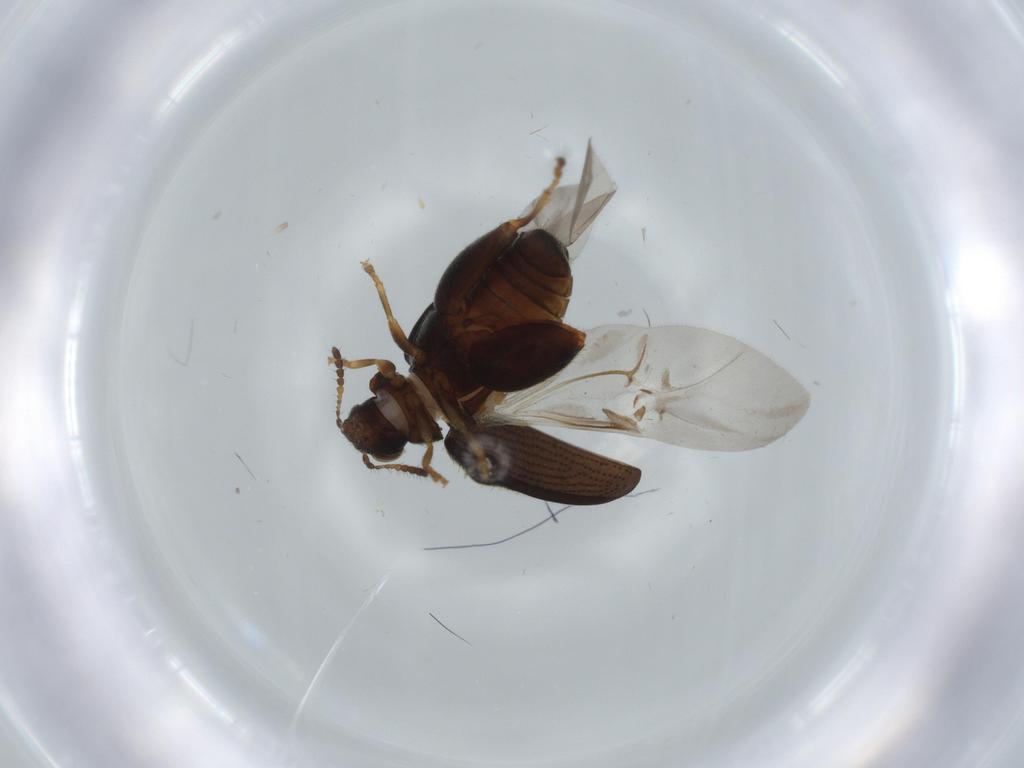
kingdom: Animalia
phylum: Arthropoda
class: Insecta
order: Coleoptera
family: Chrysomelidae
